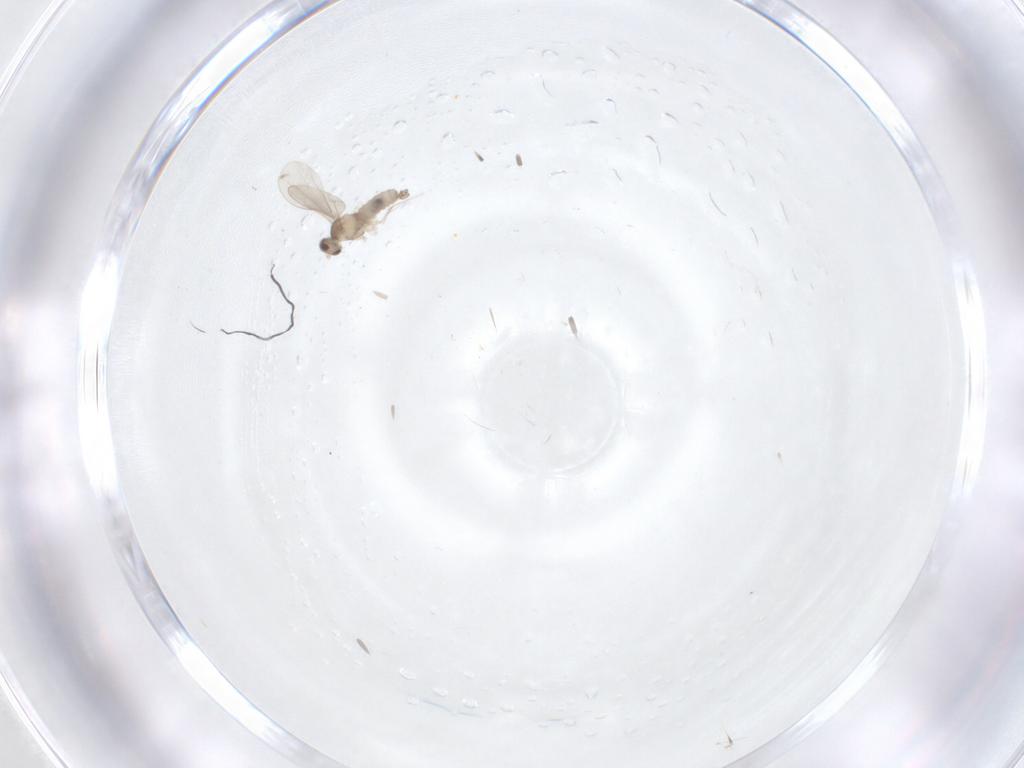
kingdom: Animalia
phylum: Arthropoda
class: Insecta
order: Diptera
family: Cecidomyiidae
